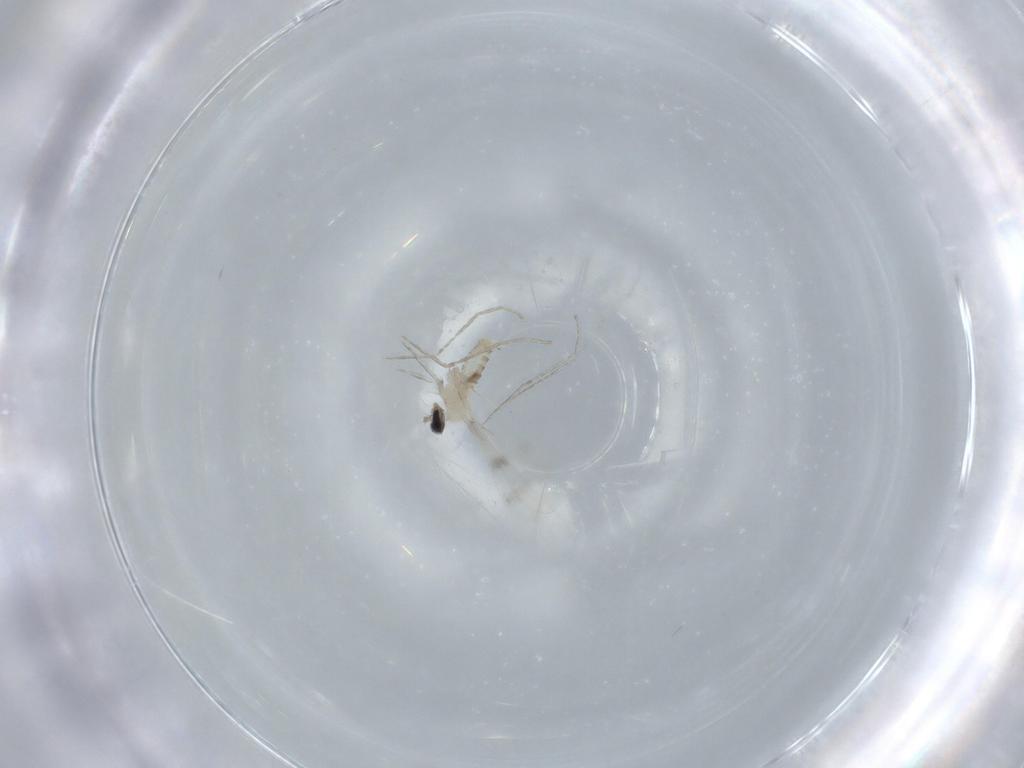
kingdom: Animalia
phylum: Arthropoda
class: Insecta
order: Diptera
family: Cecidomyiidae
